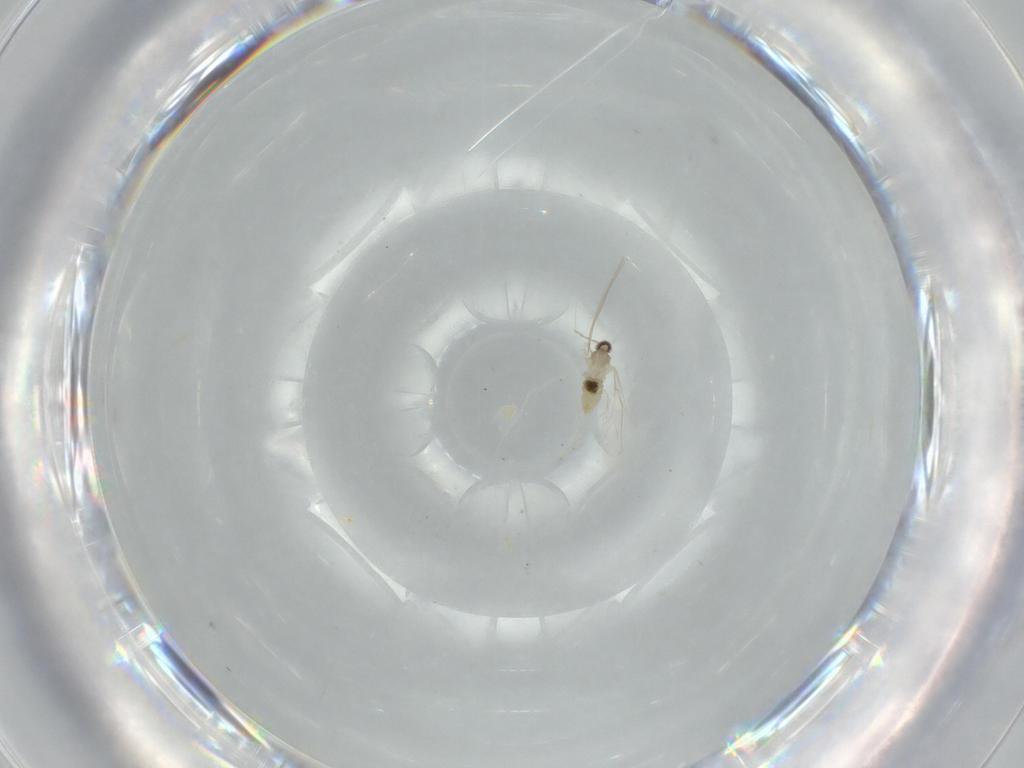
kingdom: Animalia
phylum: Arthropoda
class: Insecta
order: Diptera
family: Cecidomyiidae
